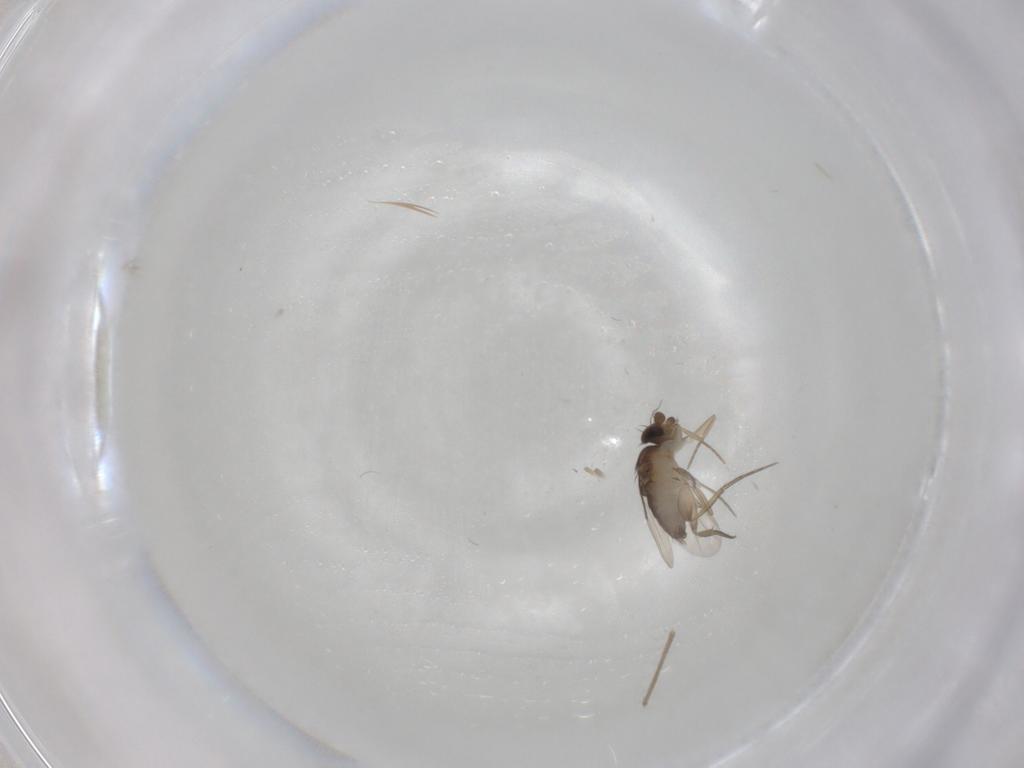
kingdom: Animalia
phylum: Arthropoda
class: Insecta
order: Diptera
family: Phoridae
